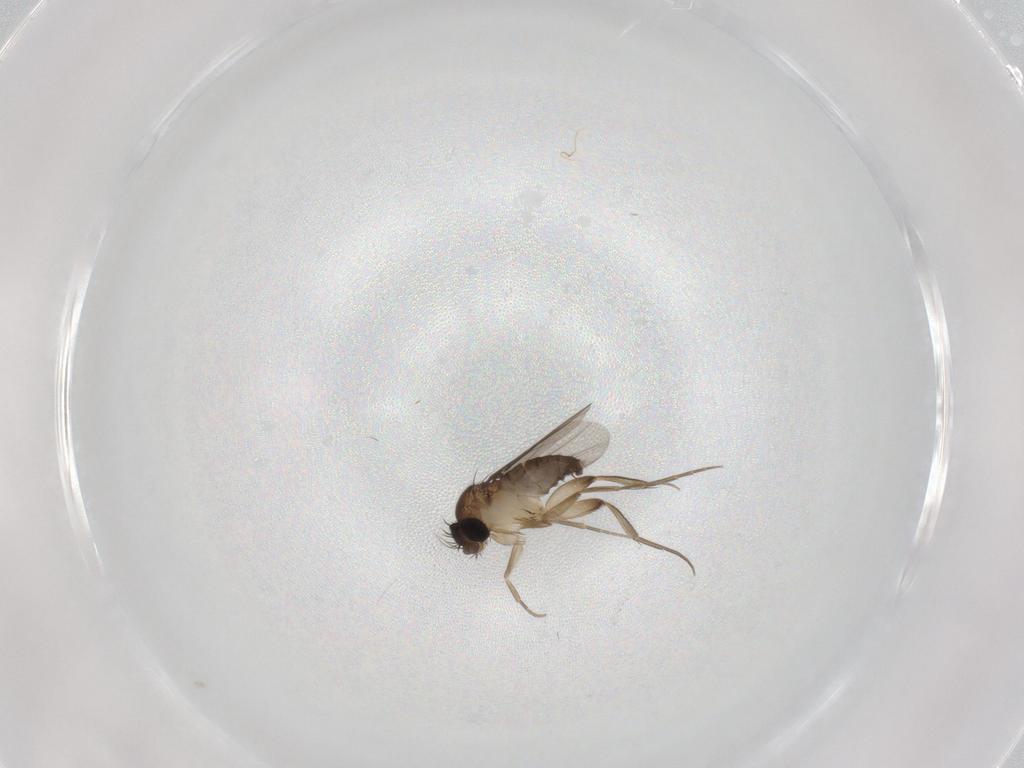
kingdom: Animalia
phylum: Arthropoda
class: Insecta
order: Diptera
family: Phoridae
